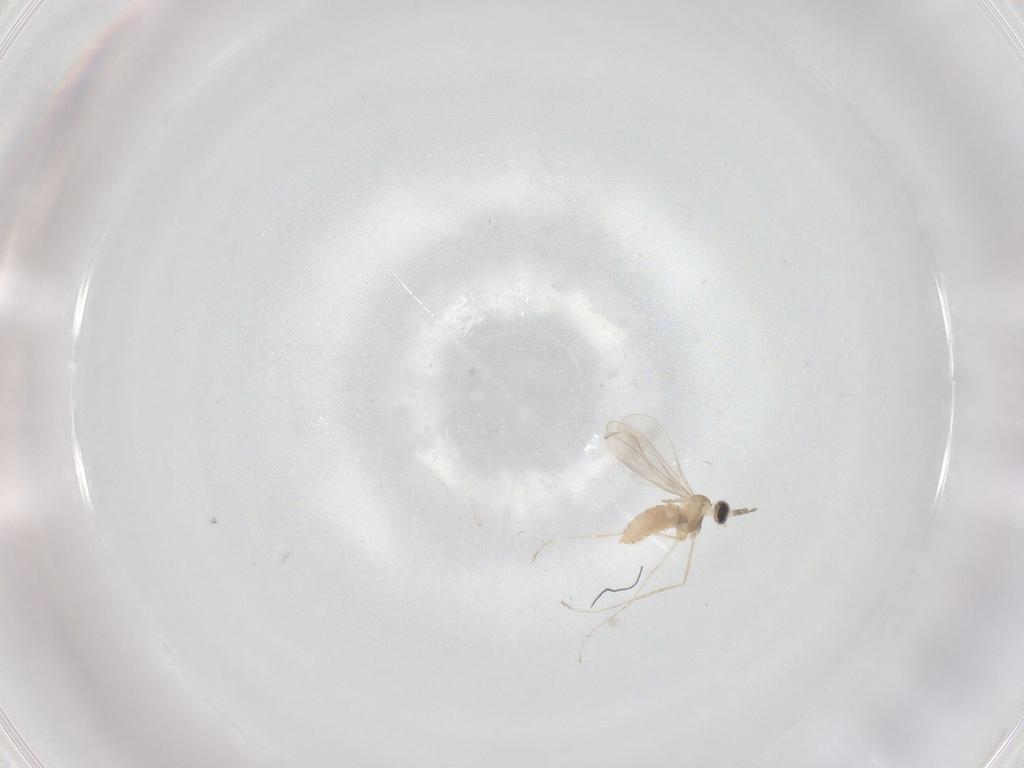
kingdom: Animalia
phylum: Arthropoda
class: Insecta
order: Diptera
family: Cecidomyiidae
